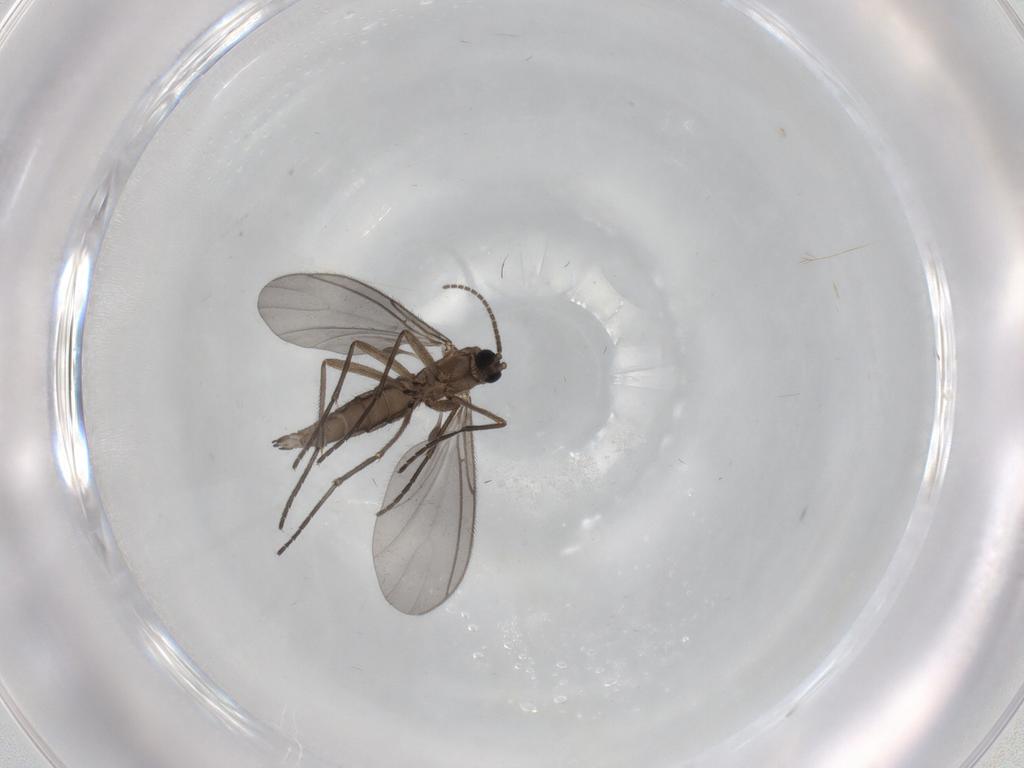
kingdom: Animalia
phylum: Arthropoda
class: Insecta
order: Diptera
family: Sciaridae
